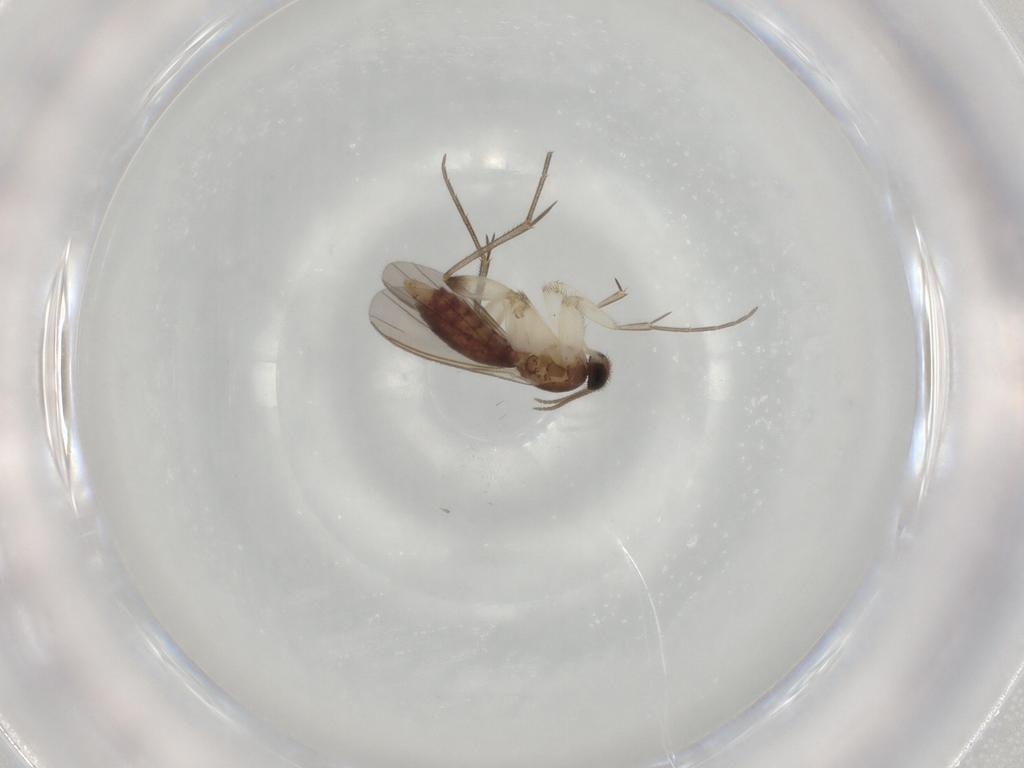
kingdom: Animalia
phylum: Arthropoda
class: Insecta
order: Diptera
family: Mycetophilidae
